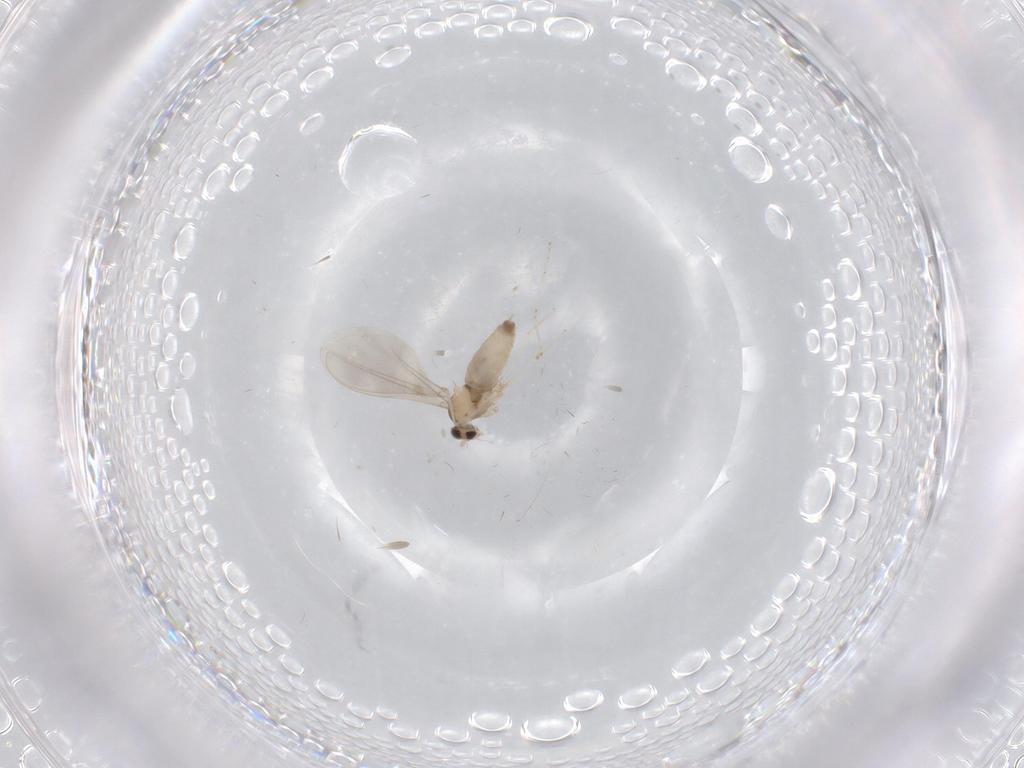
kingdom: Animalia
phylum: Arthropoda
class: Insecta
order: Diptera
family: Cecidomyiidae
